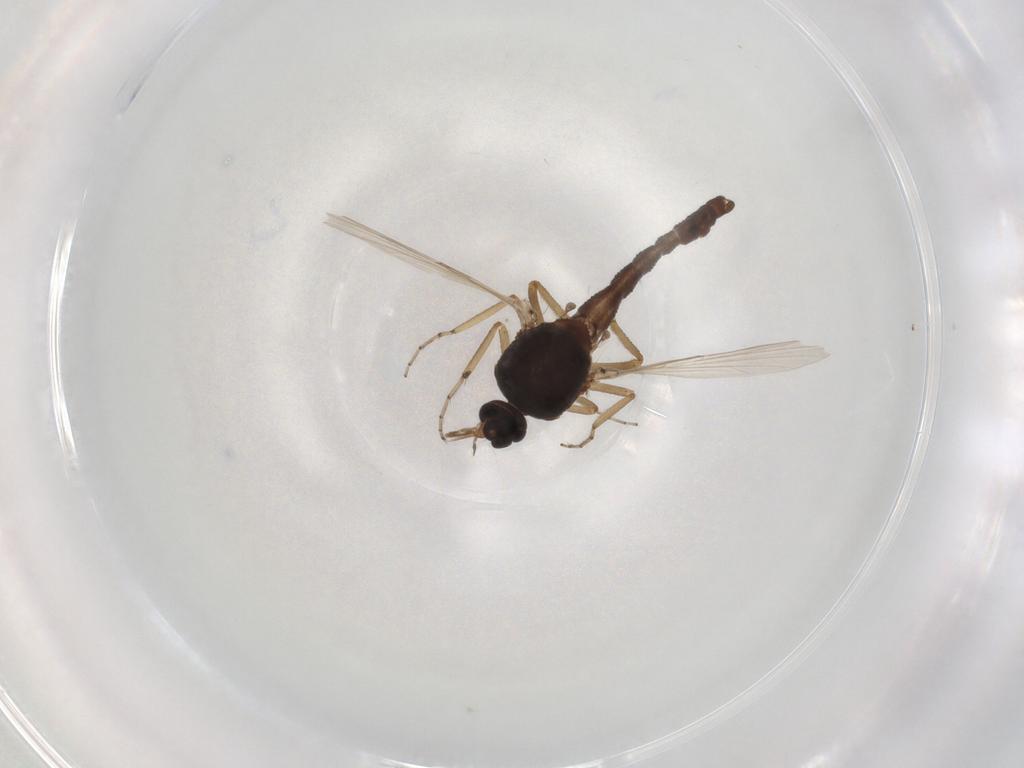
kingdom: Animalia
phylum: Arthropoda
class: Insecta
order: Diptera
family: Ceratopogonidae
